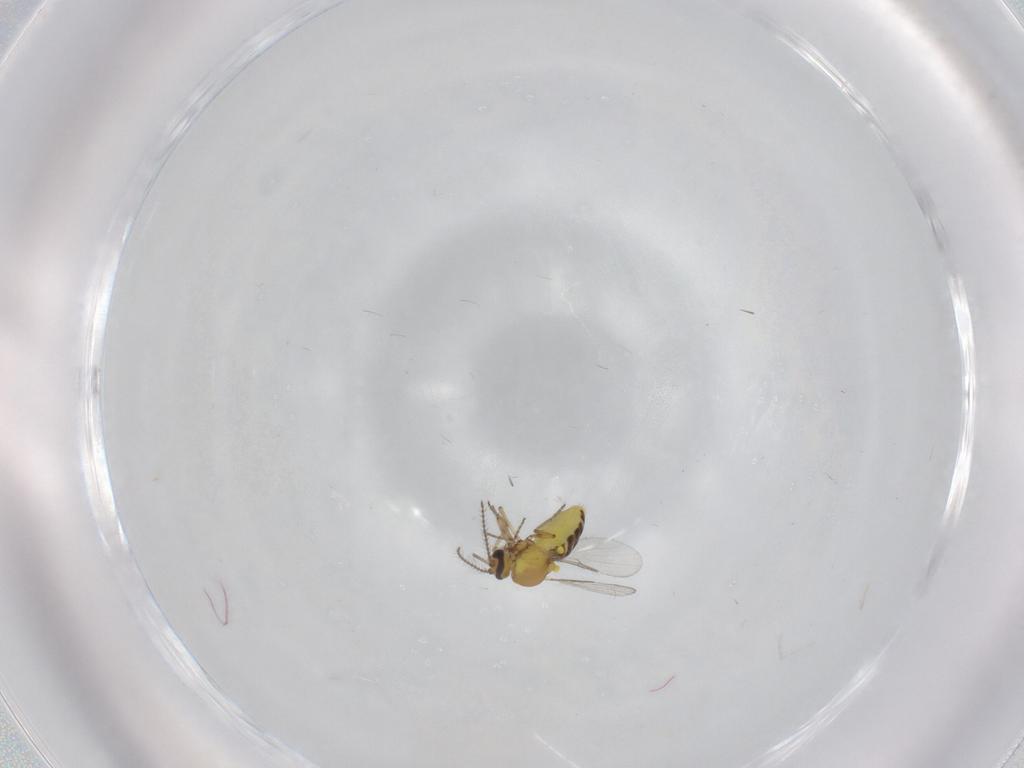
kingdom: Animalia
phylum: Arthropoda
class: Insecta
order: Diptera
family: Ceratopogonidae
